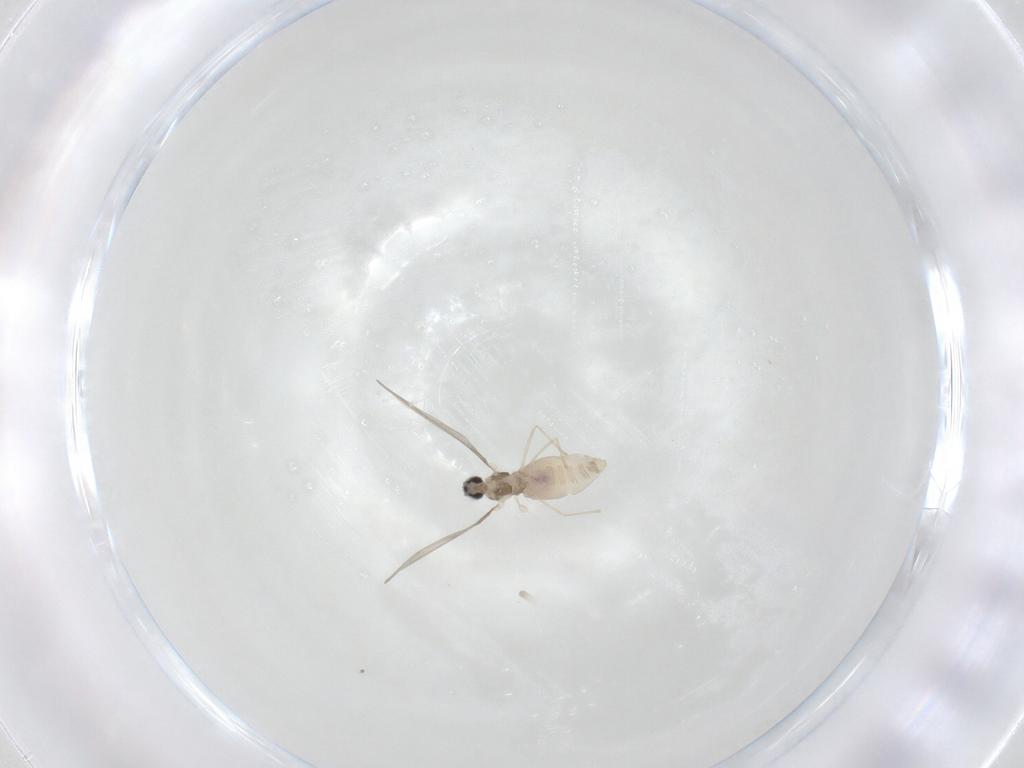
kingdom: Animalia
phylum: Arthropoda
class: Insecta
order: Diptera
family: Cecidomyiidae
